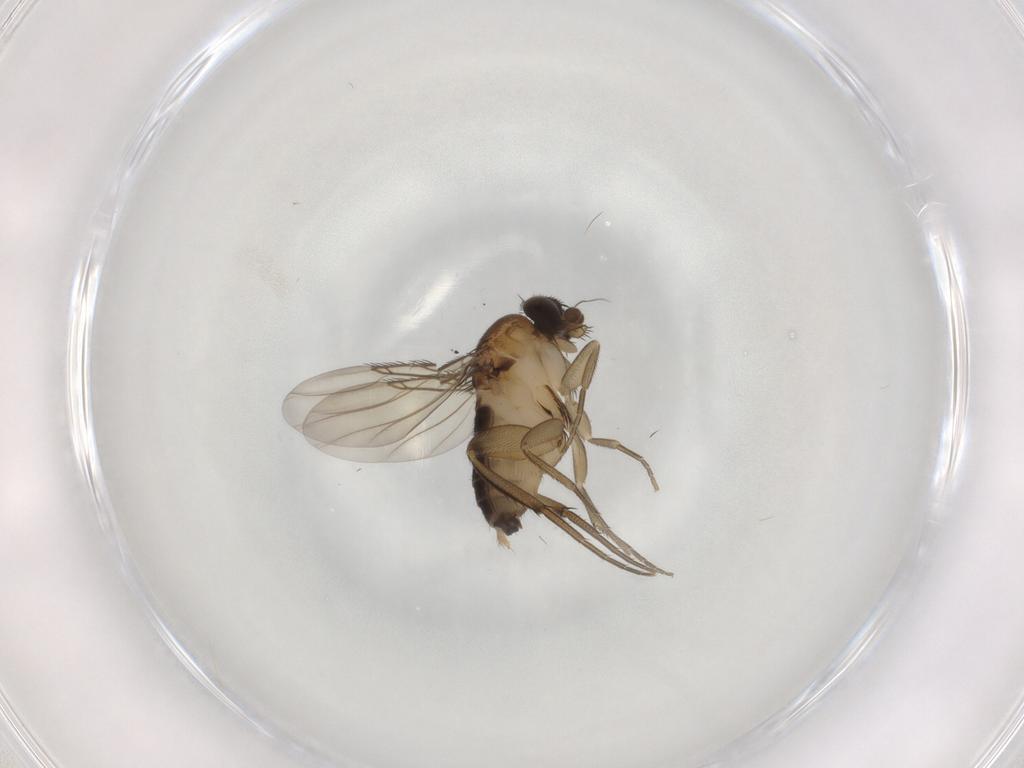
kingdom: Animalia
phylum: Arthropoda
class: Insecta
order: Diptera
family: Phoridae
